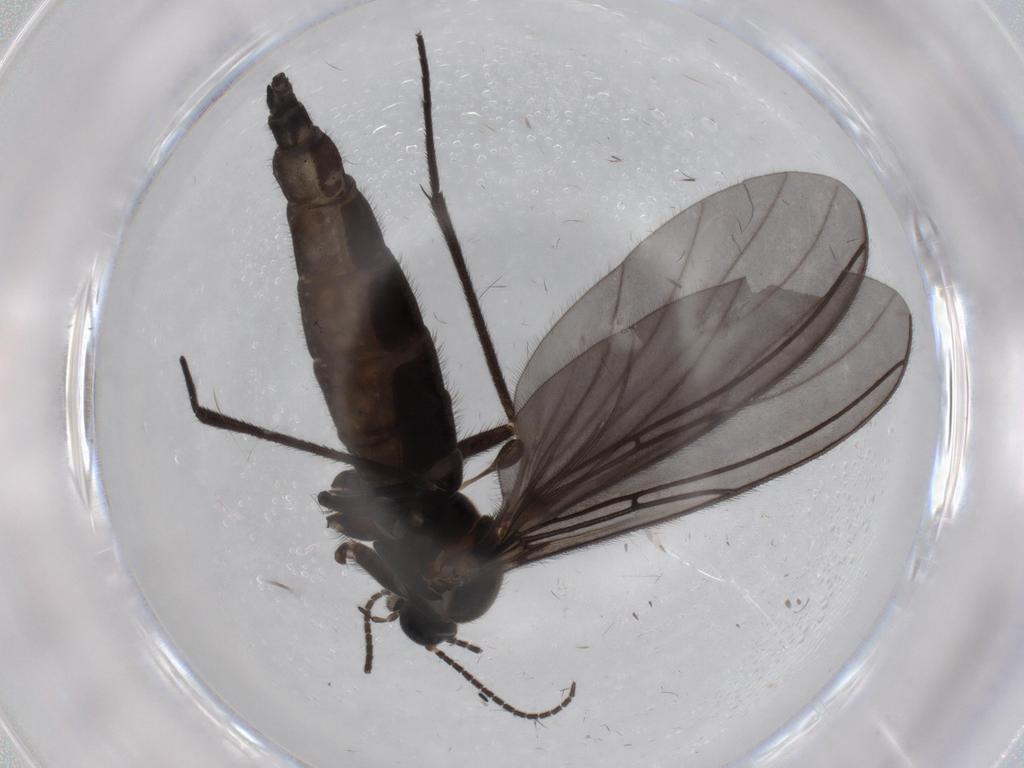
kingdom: Animalia
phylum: Arthropoda
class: Insecta
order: Diptera
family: Sciaridae
